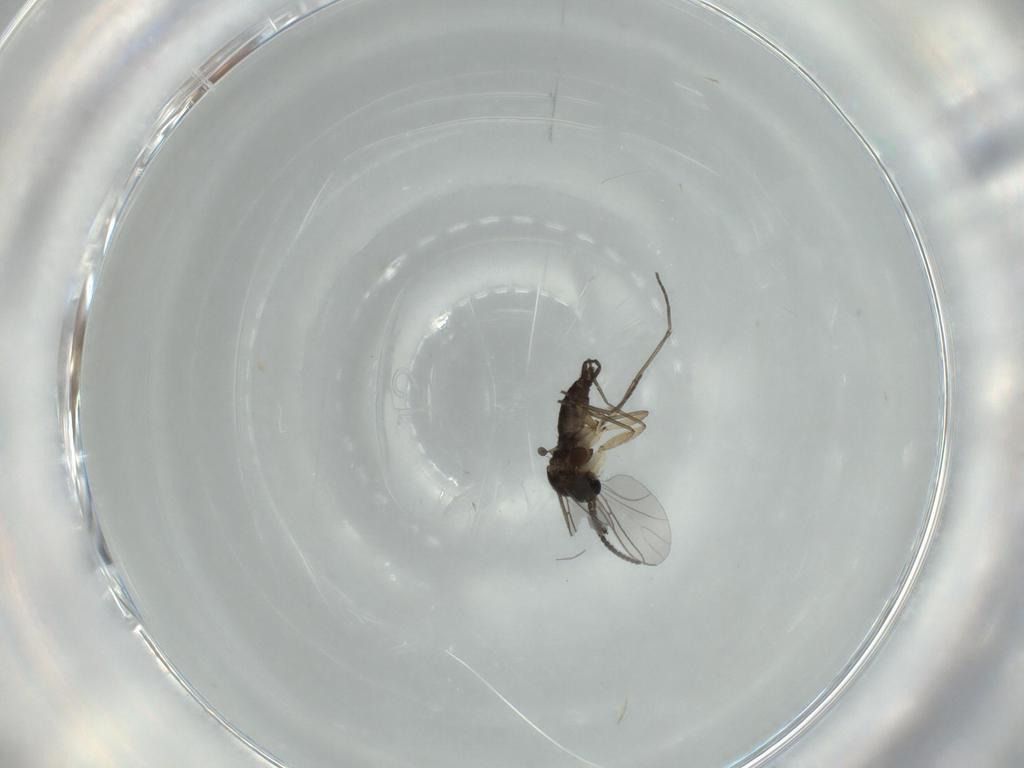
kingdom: Animalia
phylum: Arthropoda
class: Insecta
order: Diptera
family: Sciaridae
